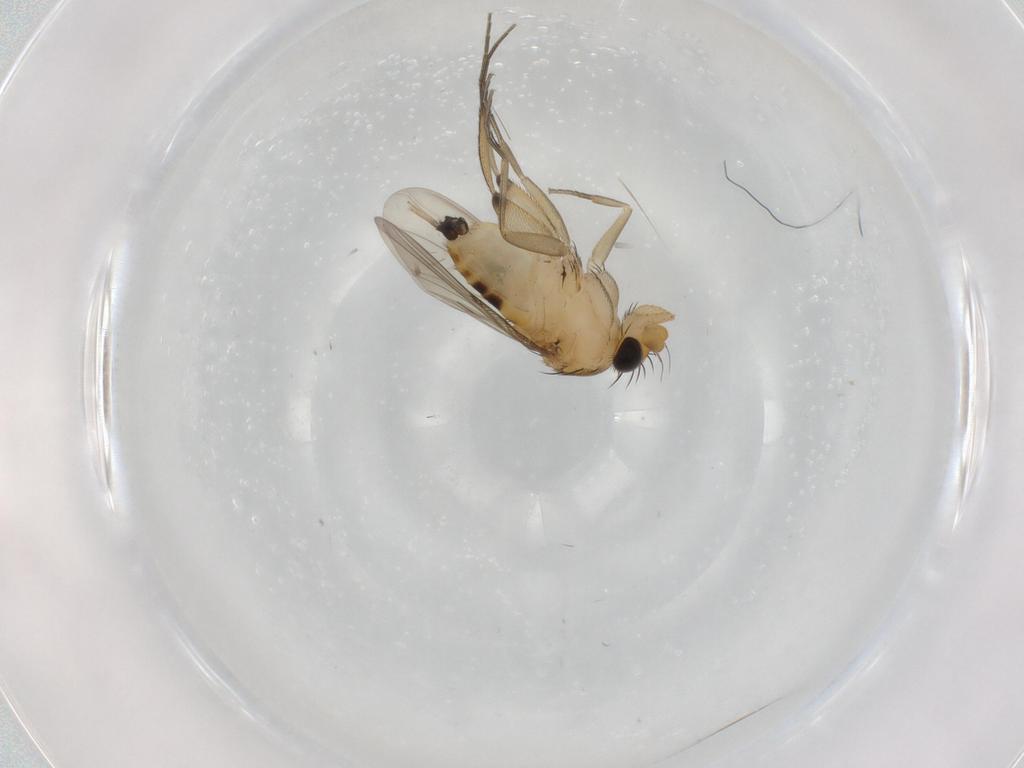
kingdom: Animalia
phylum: Arthropoda
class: Insecta
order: Diptera
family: Phoridae
